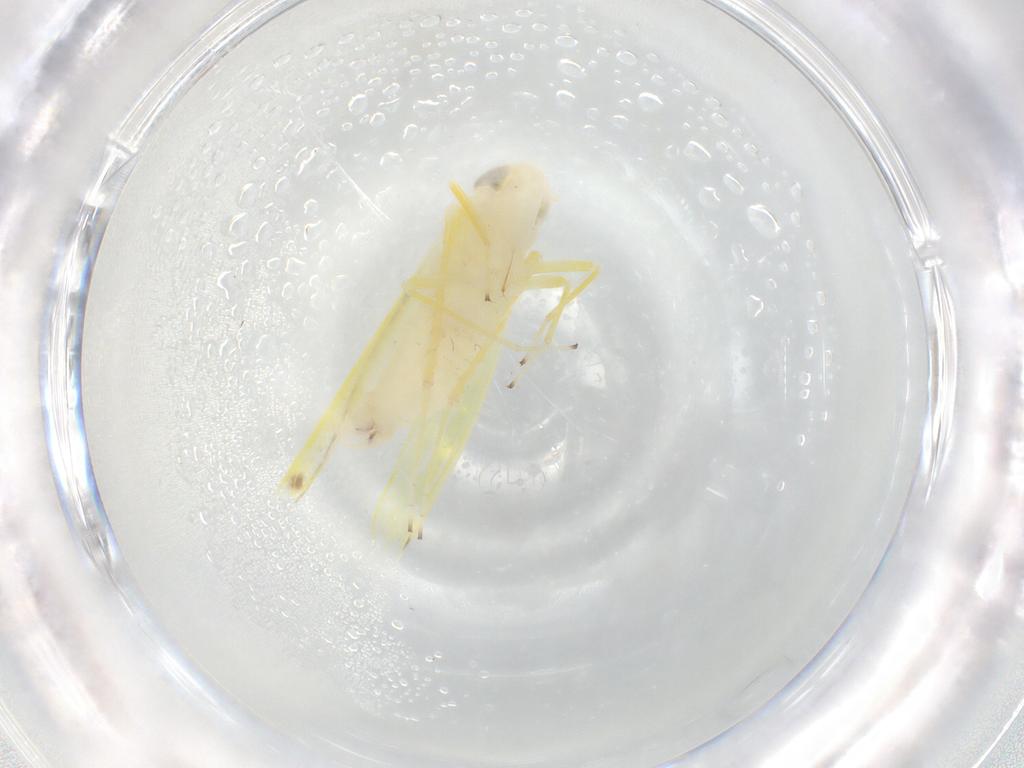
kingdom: Animalia
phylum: Arthropoda
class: Insecta
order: Hemiptera
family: Cicadellidae
